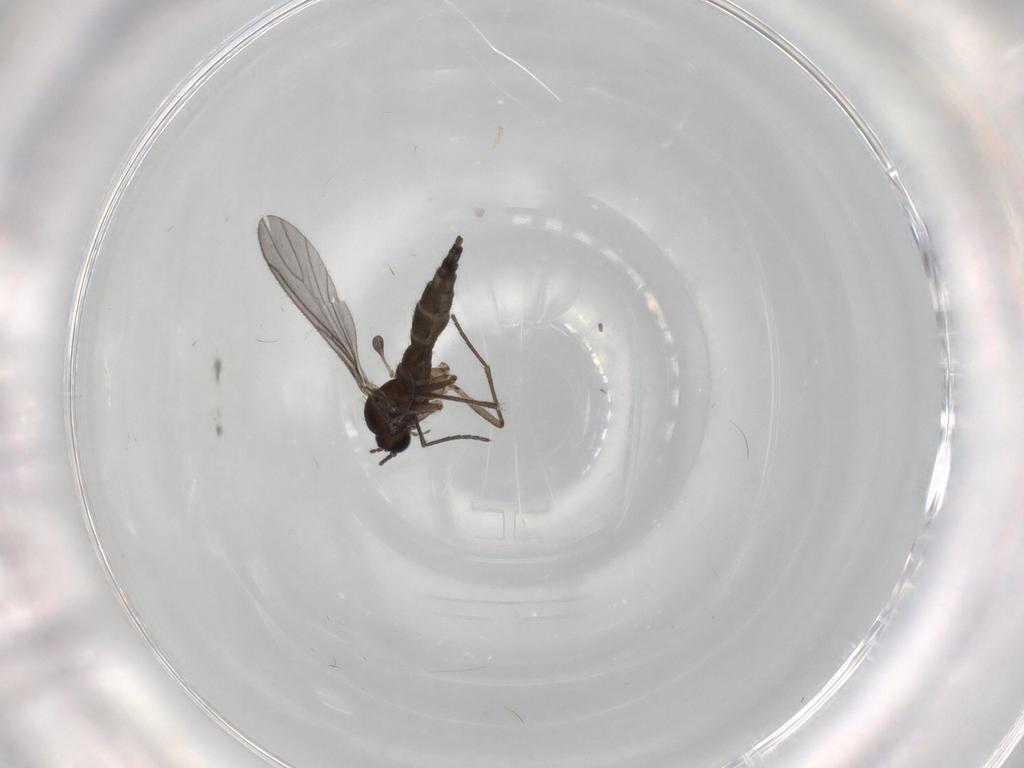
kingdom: Animalia
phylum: Arthropoda
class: Insecta
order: Diptera
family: Sciaridae
